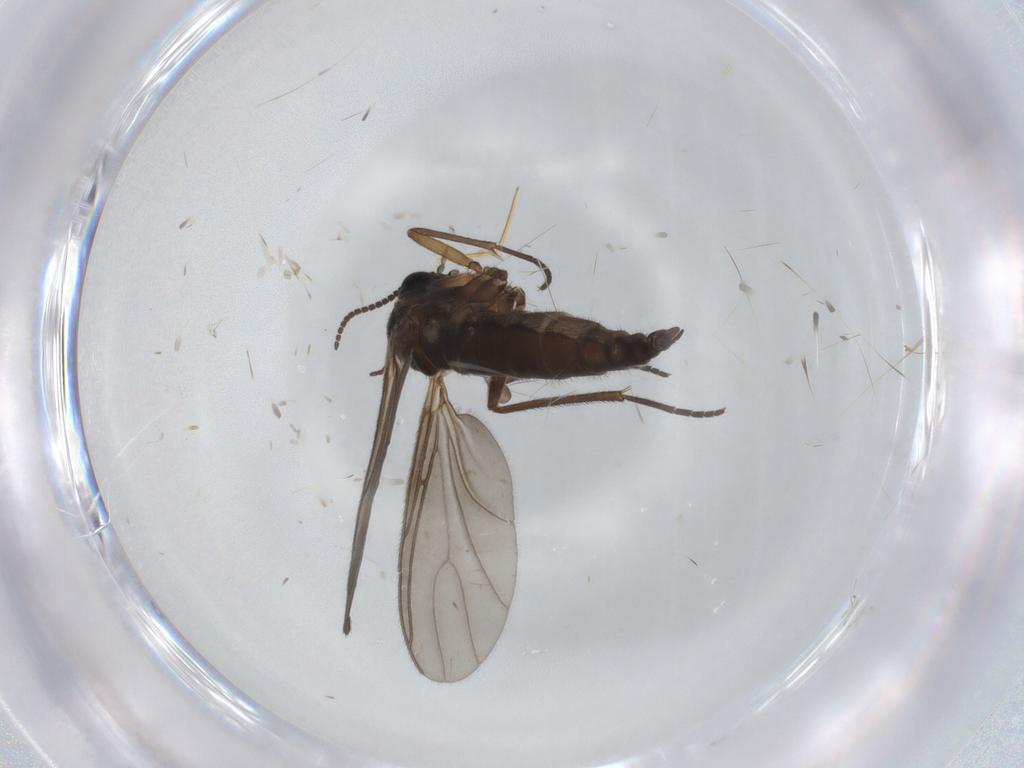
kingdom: Animalia
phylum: Arthropoda
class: Insecta
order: Diptera
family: Sciaridae
